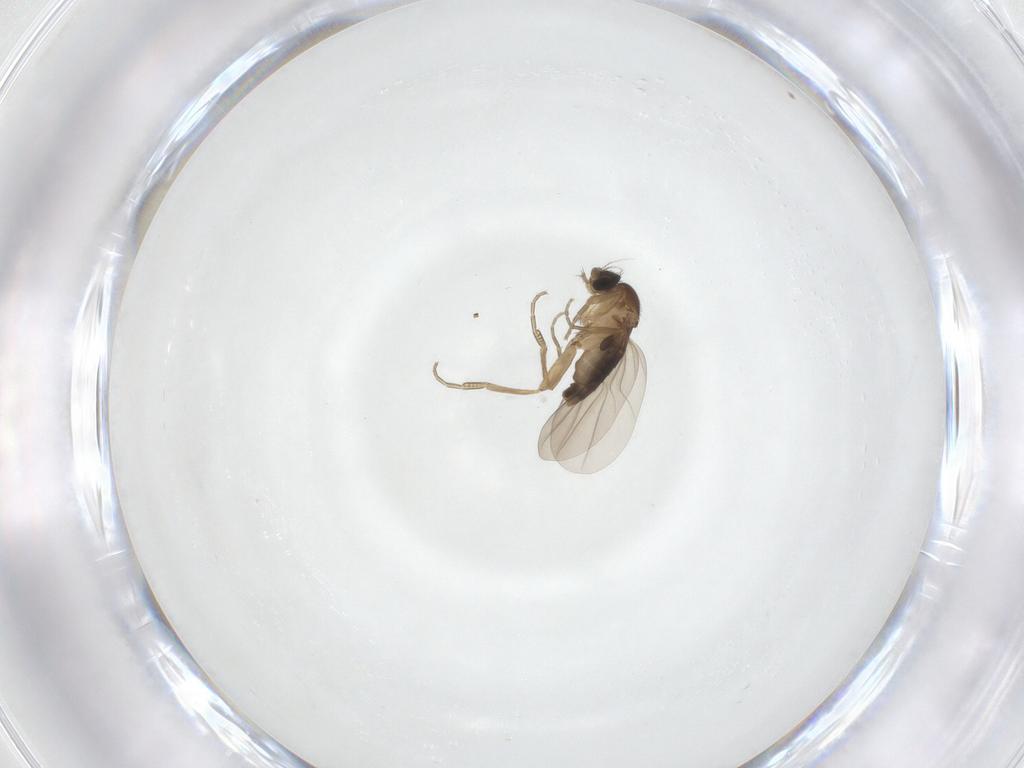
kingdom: Animalia
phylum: Arthropoda
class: Insecta
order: Diptera
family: Phoridae
